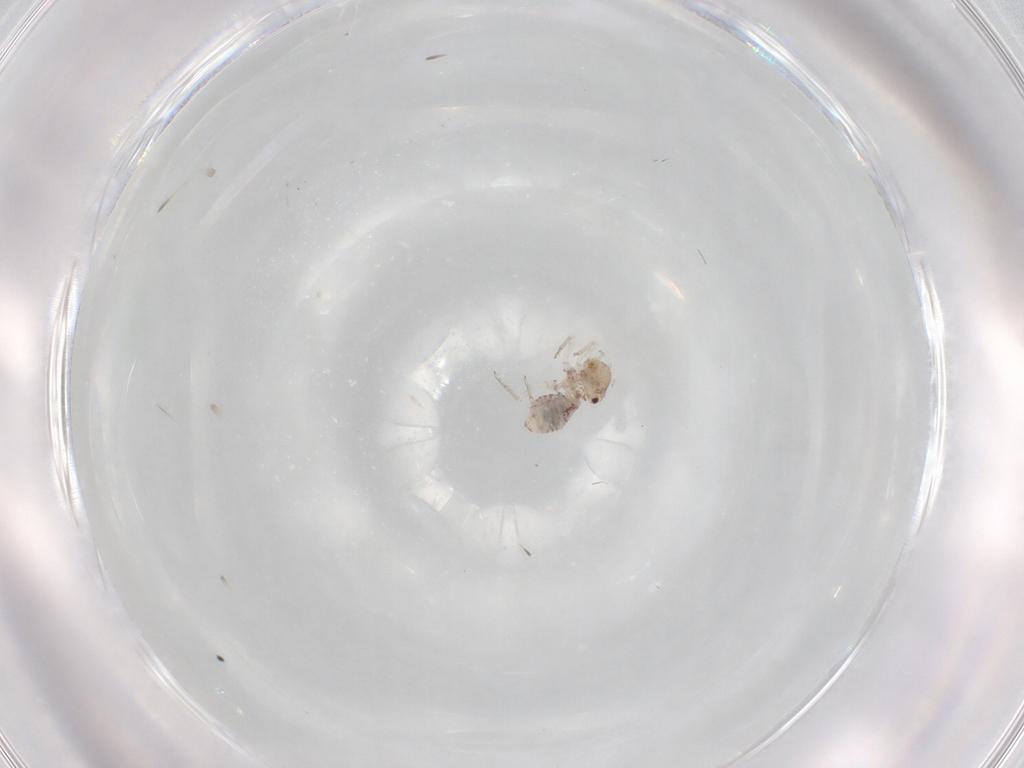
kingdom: Animalia
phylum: Arthropoda
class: Insecta
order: Psocodea
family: Lachesillidae
